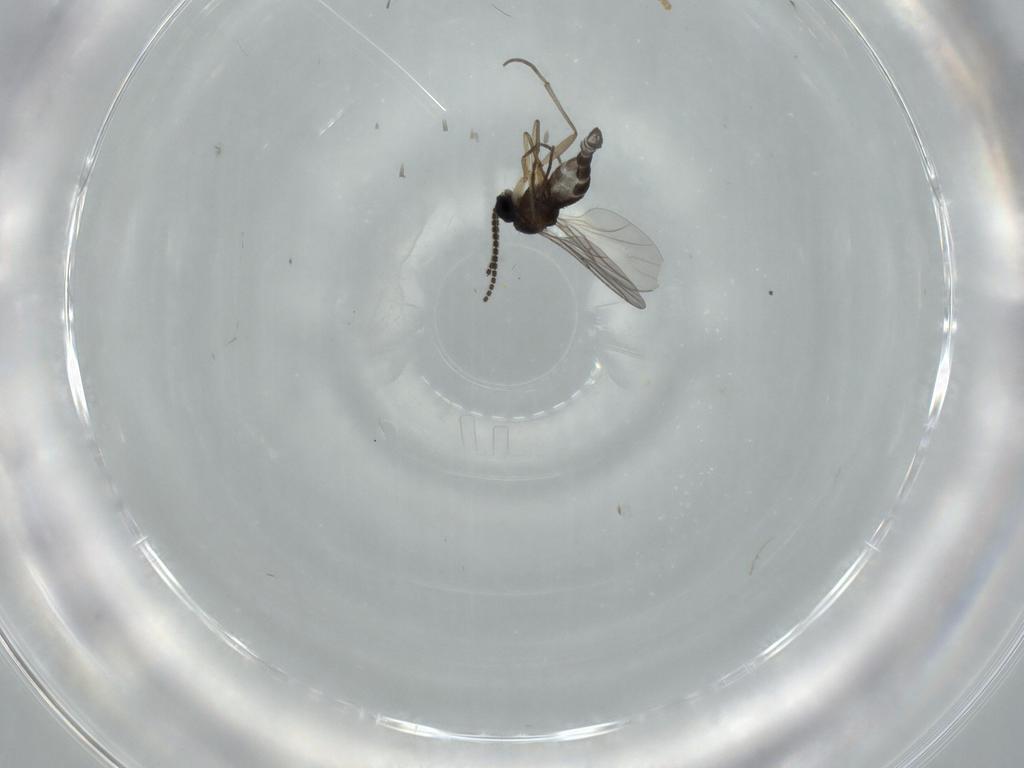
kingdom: Animalia
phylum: Arthropoda
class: Insecta
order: Diptera
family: Sciaridae
